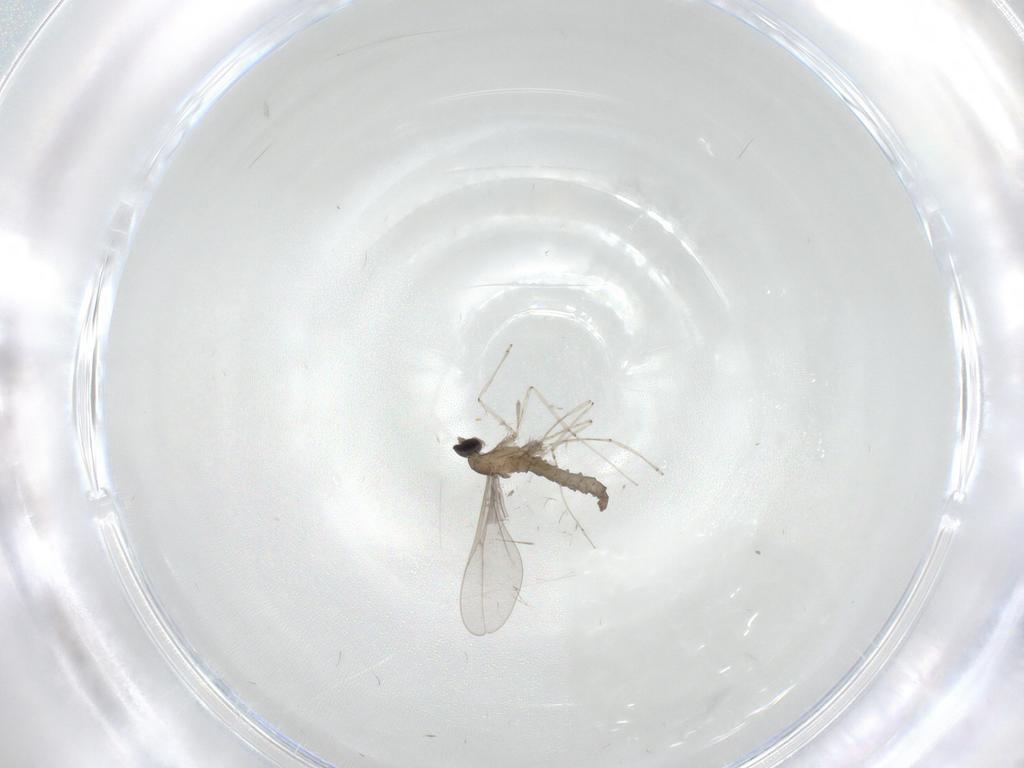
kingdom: Animalia
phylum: Arthropoda
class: Insecta
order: Diptera
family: Cecidomyiidae
